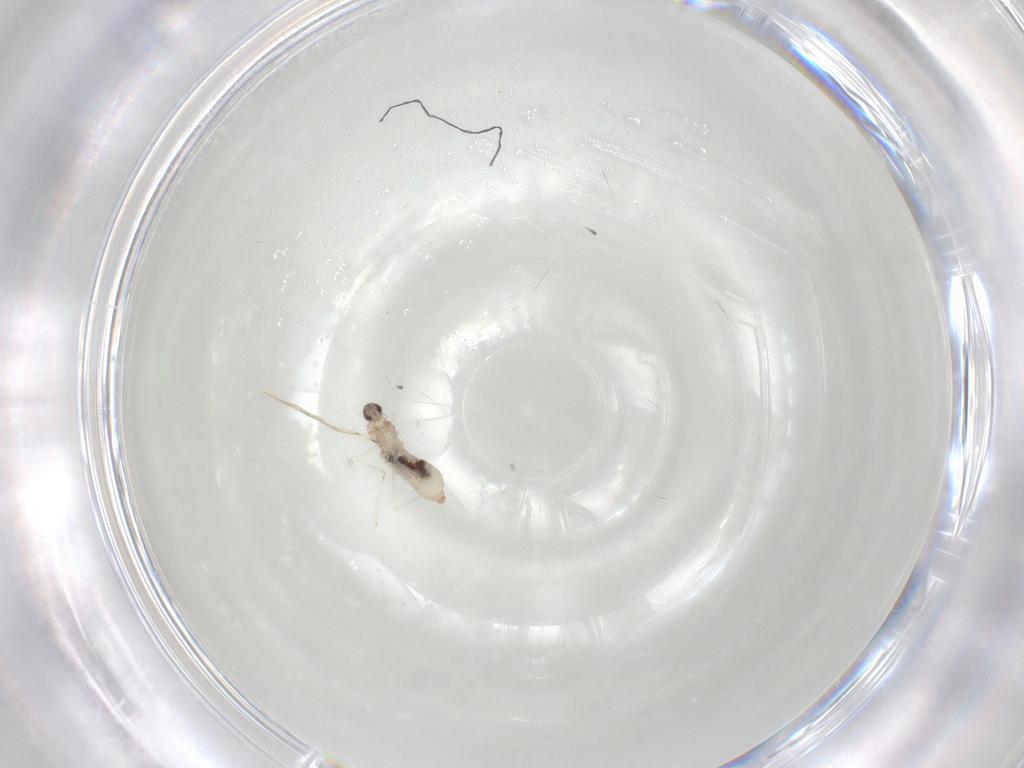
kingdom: Animalia
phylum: Arthropoda
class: Insecta
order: Diptera
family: Cecidomyiidae
